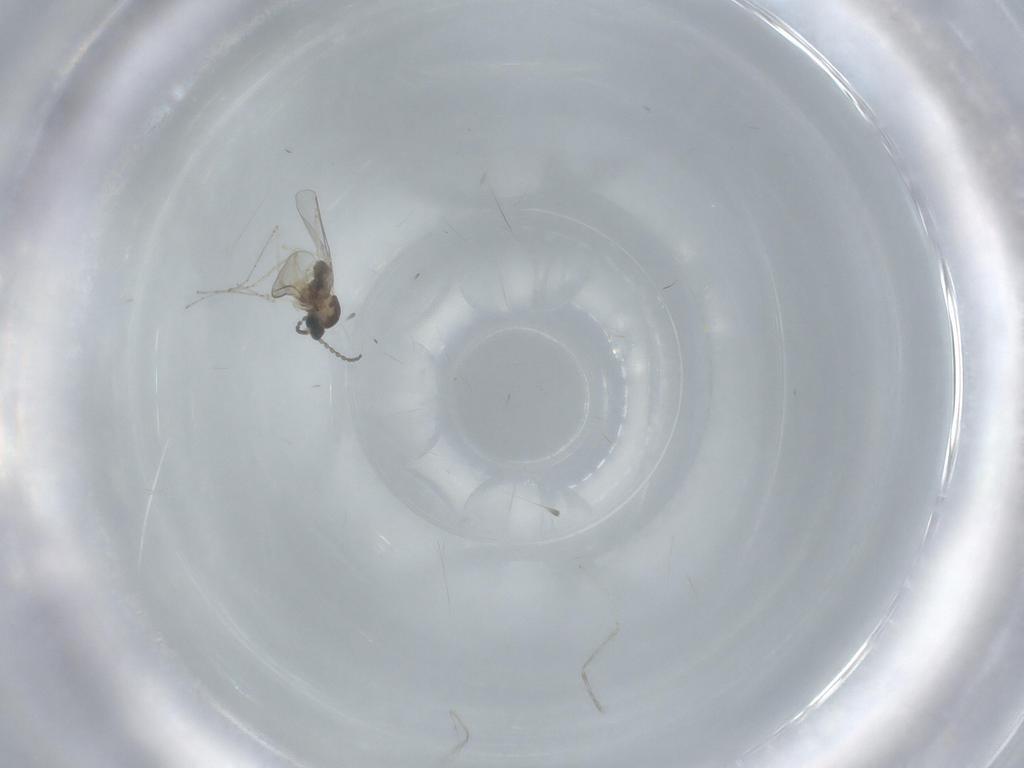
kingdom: Animalia
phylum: Arthropoda
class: Insecta
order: Diptera
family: Cecidomyiidae
